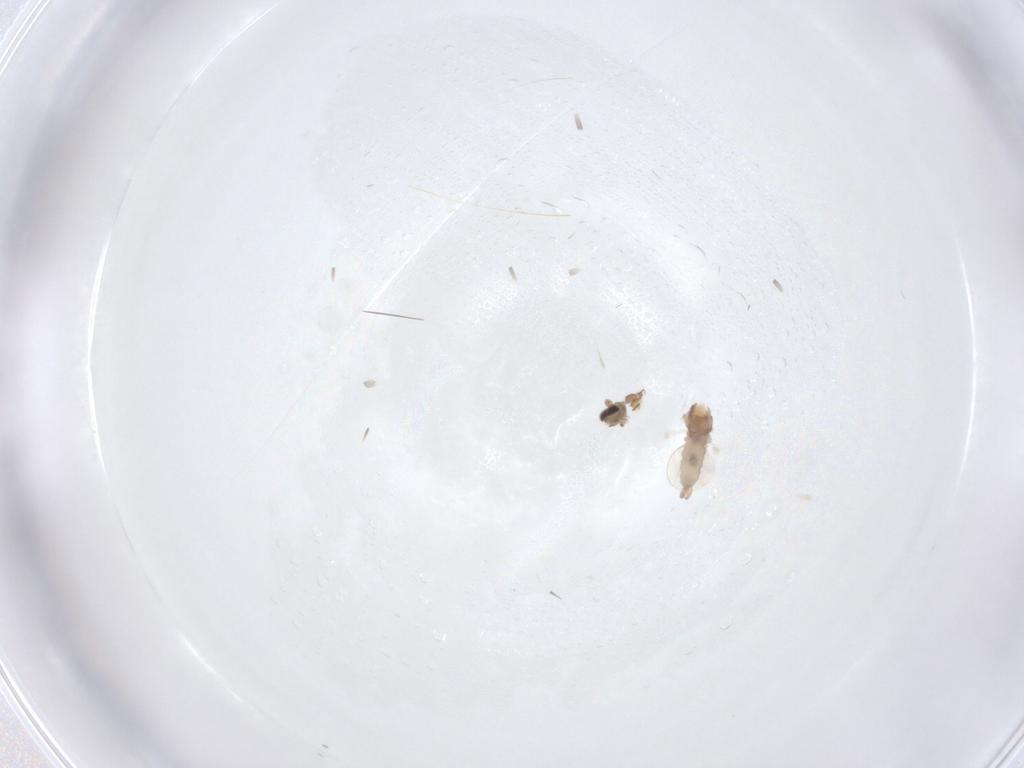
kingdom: Animalia
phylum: Arthropoda
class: Insecta
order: Diptera
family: Cecidomyiidae
